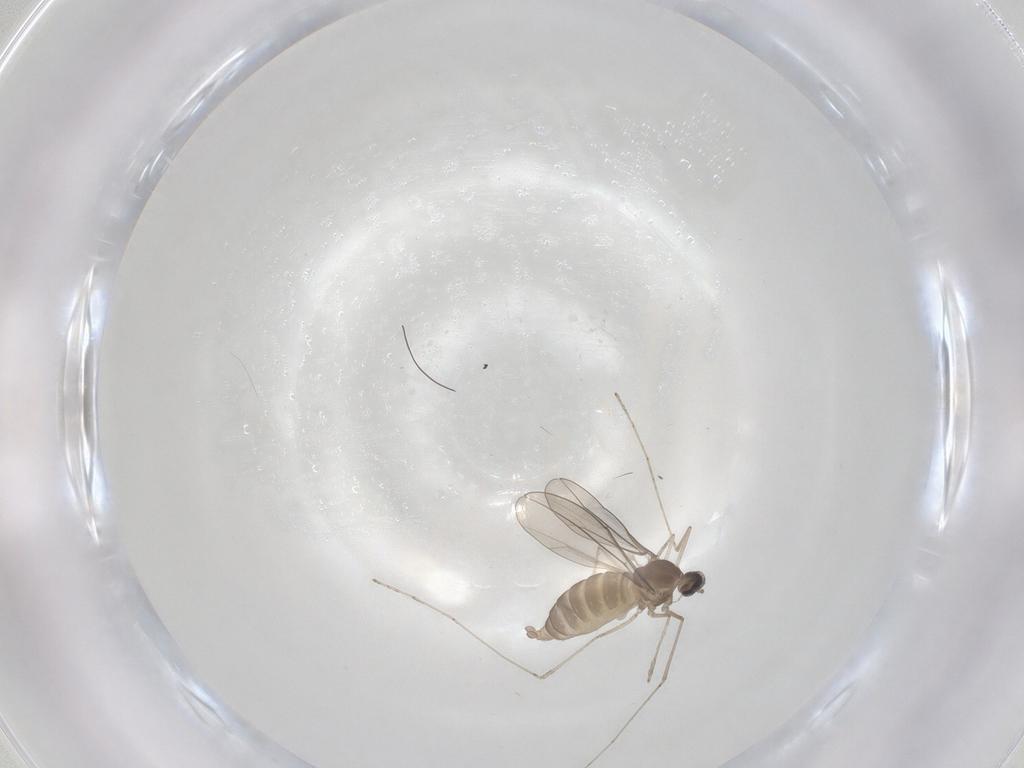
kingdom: Animalia
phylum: Arthropoda
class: Insecta
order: Diptera
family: Cecidomyiidae
